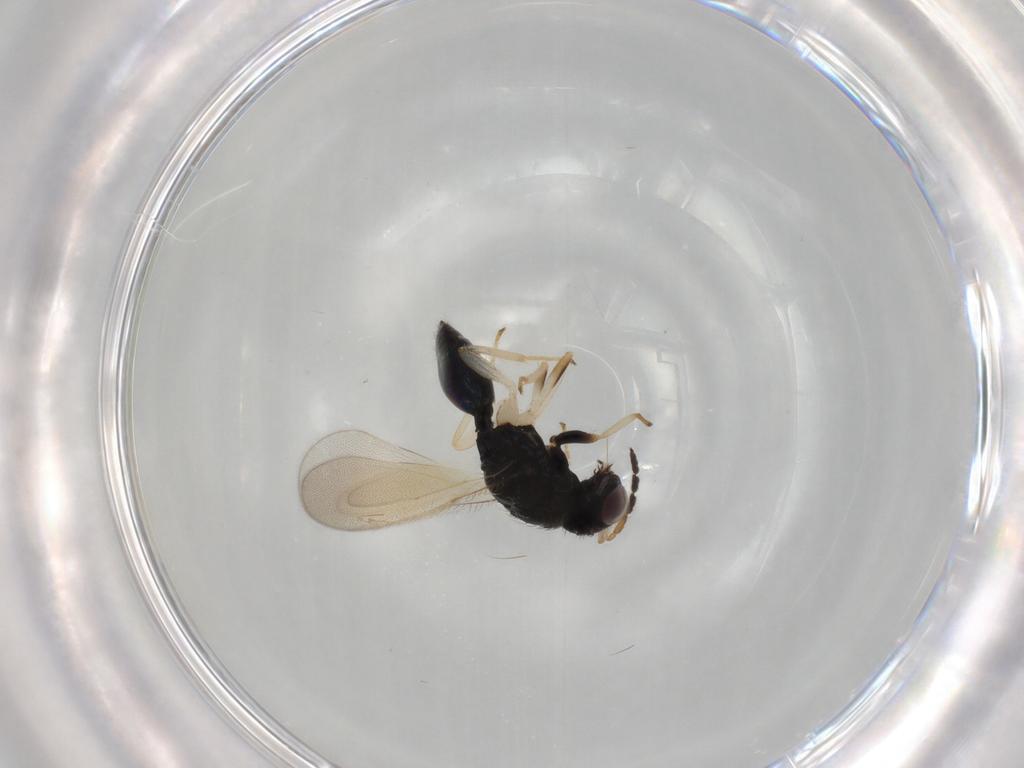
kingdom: Animalia
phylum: Arthropoda
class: Insecta
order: Hymenoptera
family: Eulophidae
